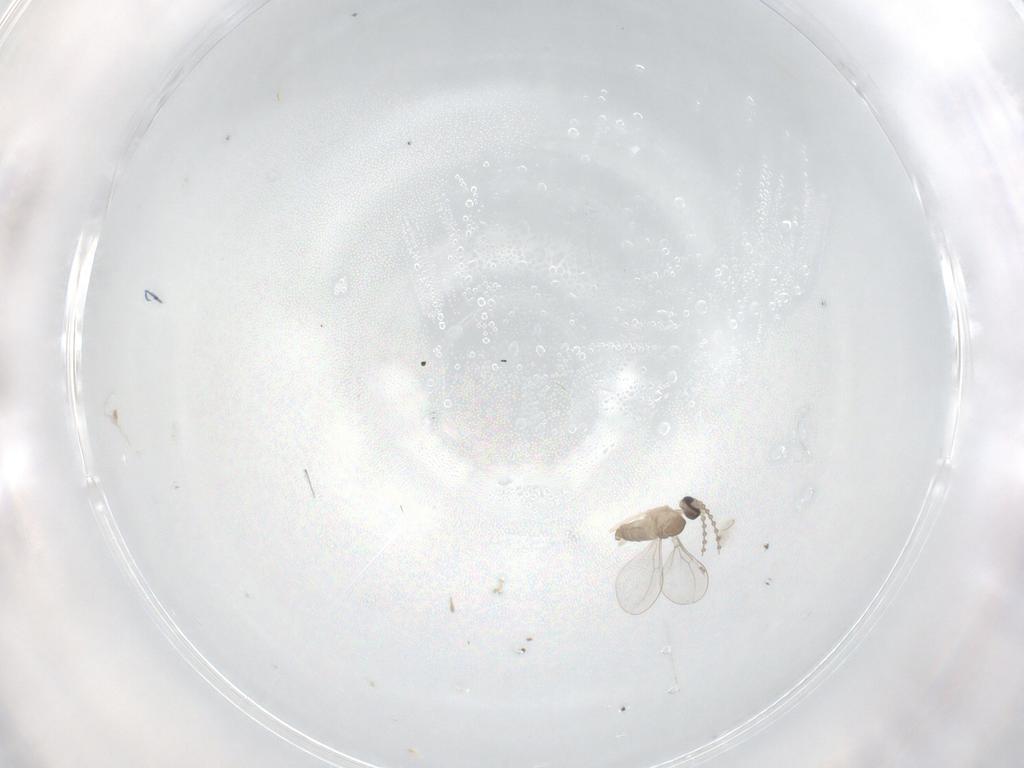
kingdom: Animalia
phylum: Arthropoda
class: Insecta
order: Diptera
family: Cecidomyiidae
